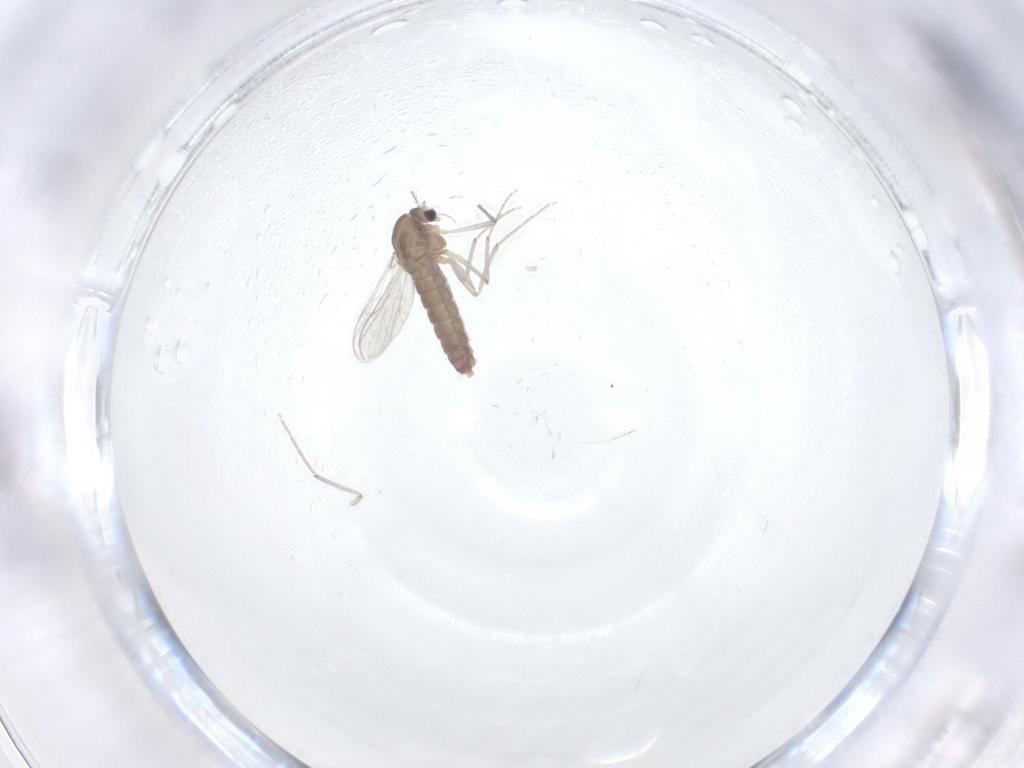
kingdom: Animalia
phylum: Arthropoda
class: Insecta
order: Diptera
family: Chironomidae
